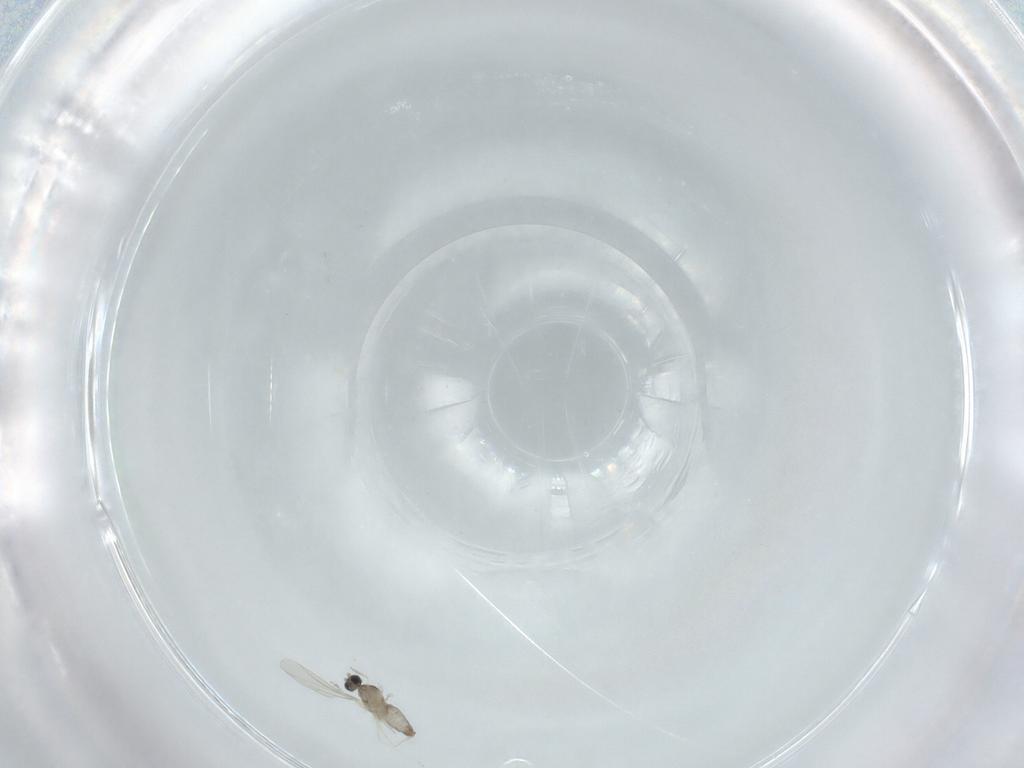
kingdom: Animalia
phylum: Arthropoda
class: Insecta
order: Diptera
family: Cecidomyiidae
